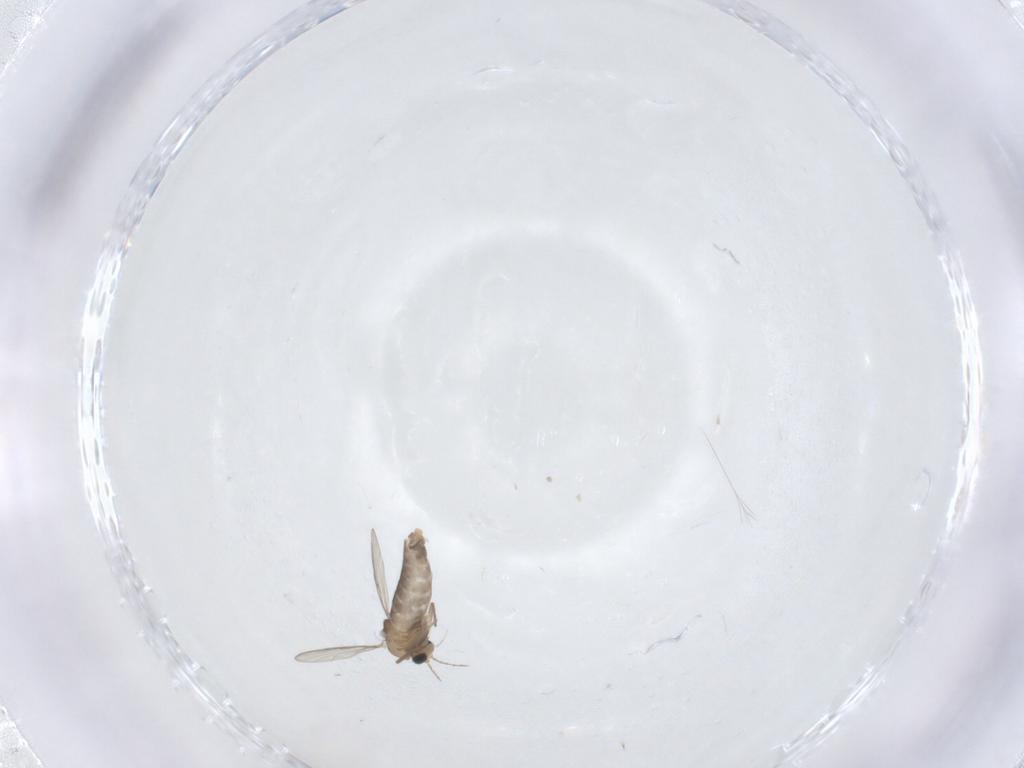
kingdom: Animalia
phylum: Arthropoda
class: Insecta
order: Diptera
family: Chironomidae
